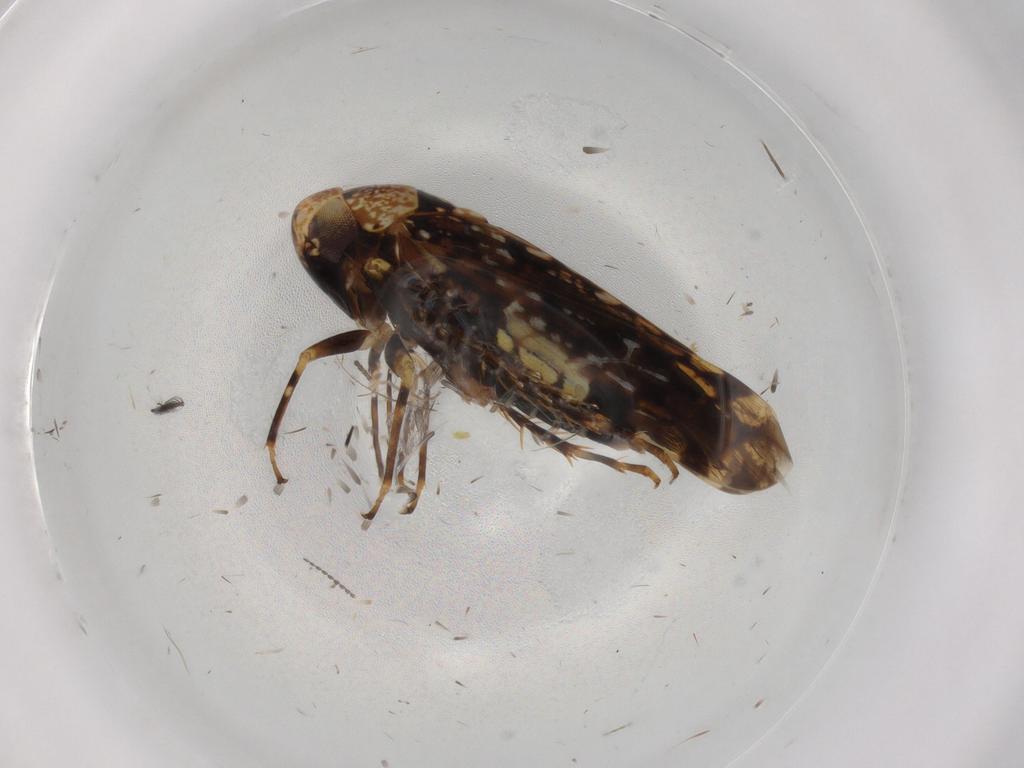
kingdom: Animalia
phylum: Arthropoda
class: Insecta
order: Hemiptera
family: Cicadellidae
